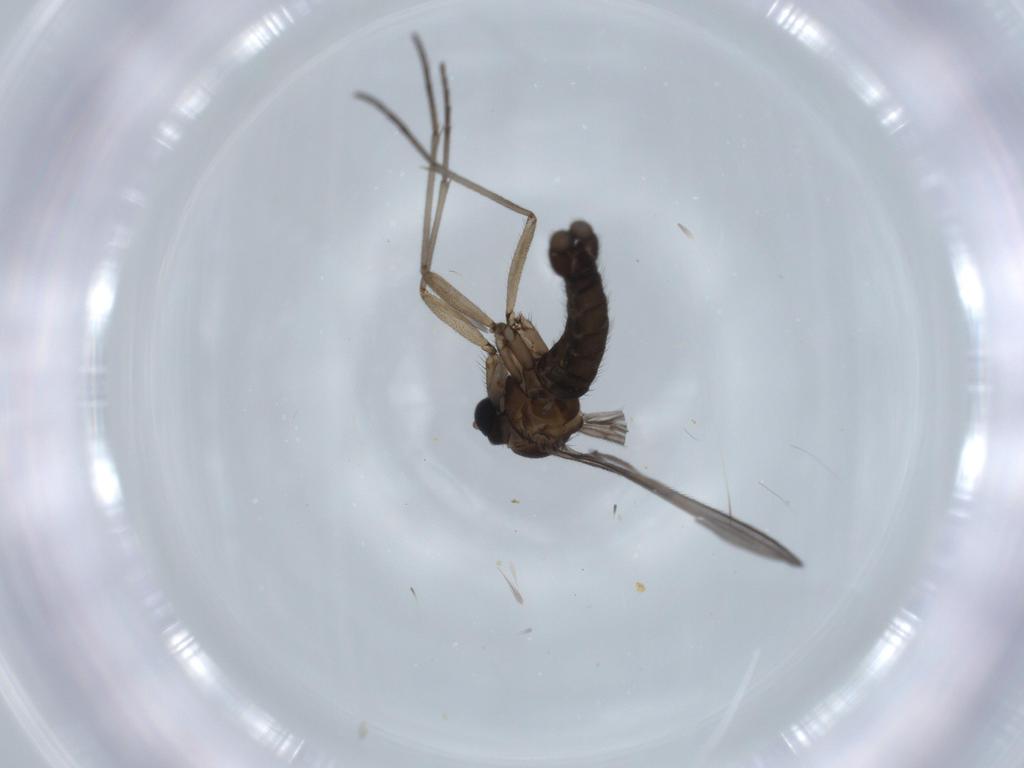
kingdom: Animalia
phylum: Arthropoda
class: Insecta
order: Diptera
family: Sciaridae
